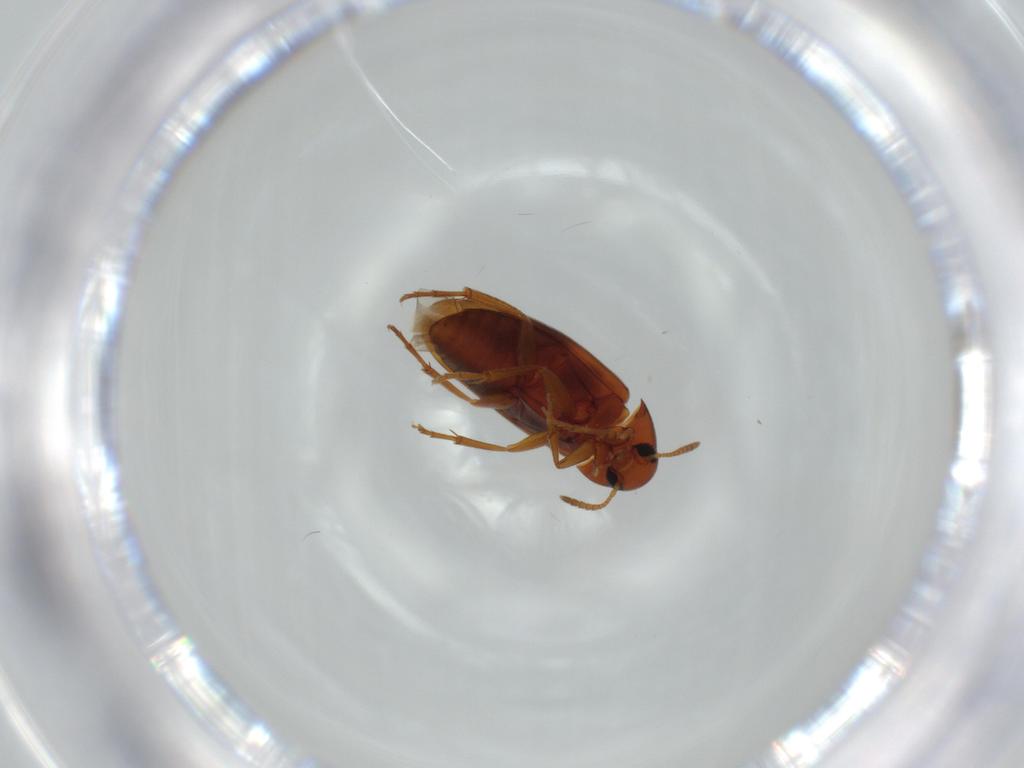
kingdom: Animalia
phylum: Arthropoda
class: Insecta
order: Coleoptera
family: Scraptiidae
